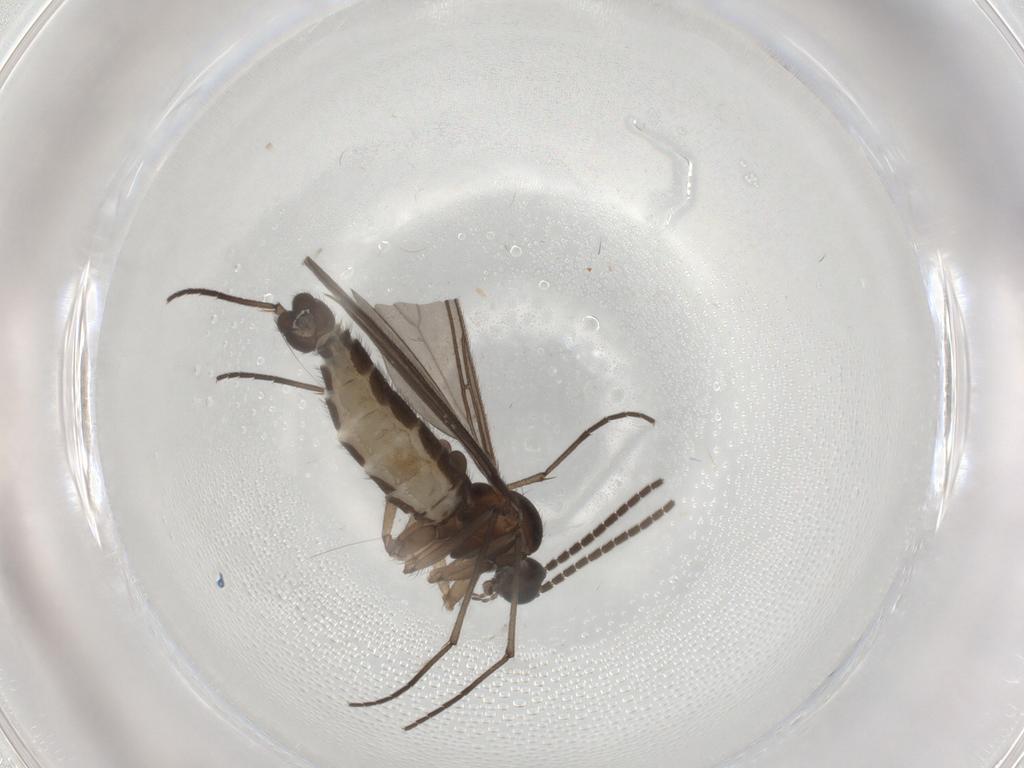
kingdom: Animalia
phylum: Arthropoda
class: Insecta
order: Diptera
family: Sciaridae
